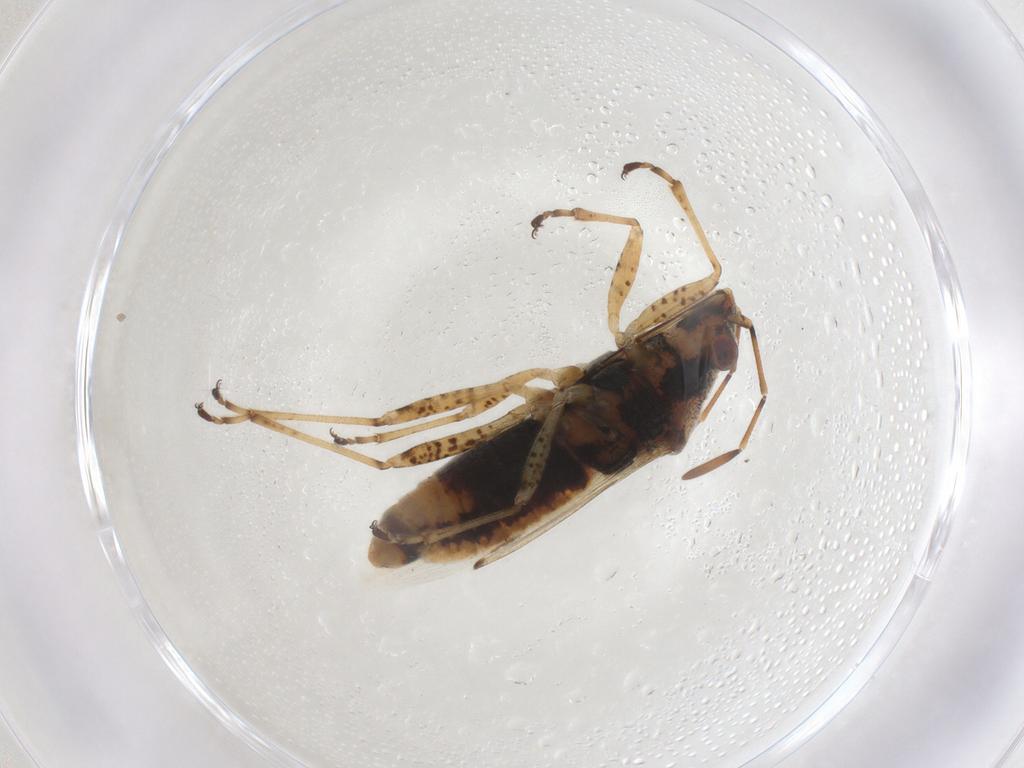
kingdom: Animalia
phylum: Arthropoda
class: Insecta
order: Hemiptera
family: Lygaeidae
